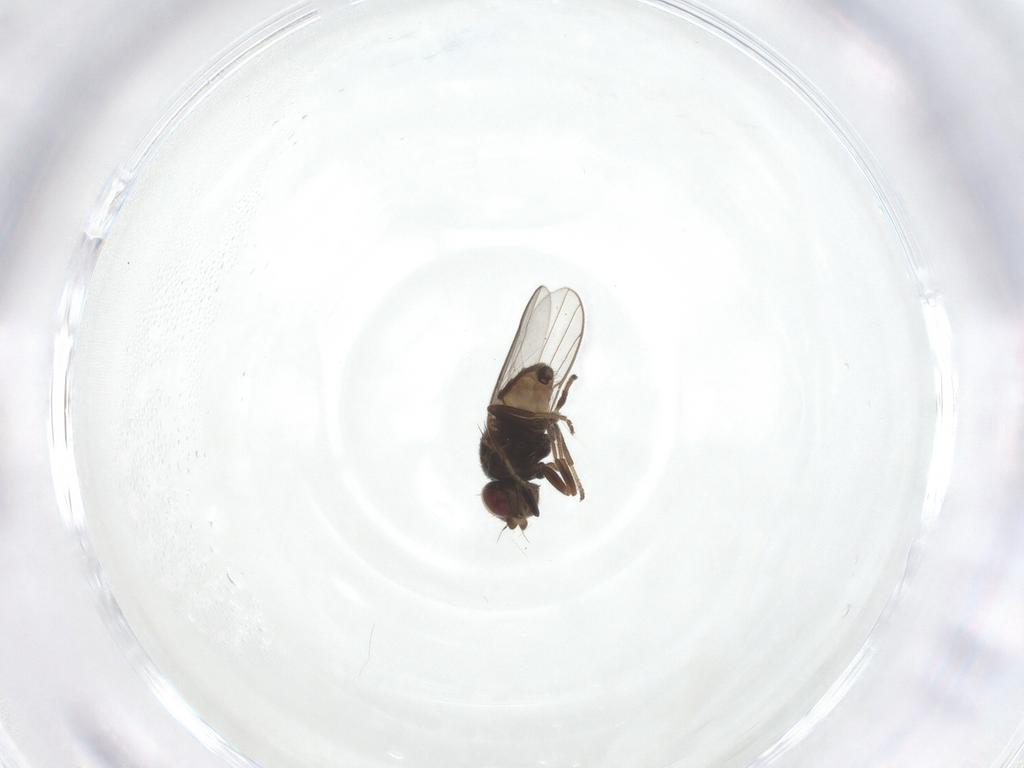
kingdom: Animalia
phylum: Arthropoda
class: Insecta
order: Diptera
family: Chloropidae
